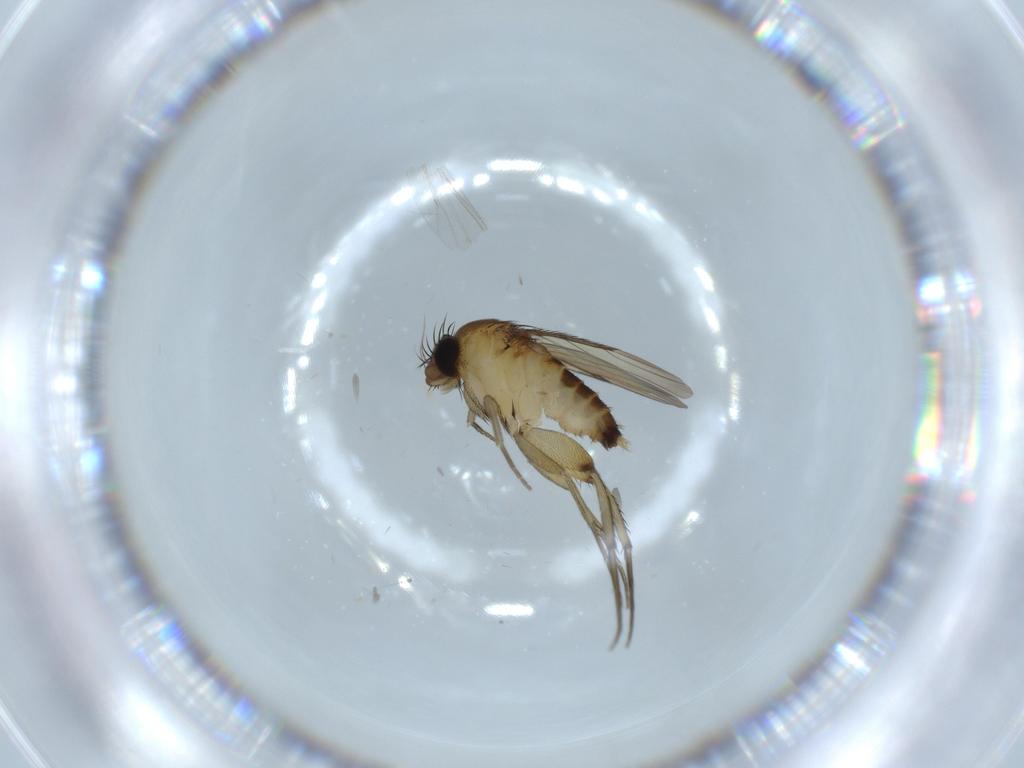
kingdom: Animalia
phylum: Arthropoda
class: Insecta
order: Diptera
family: Phoridae
